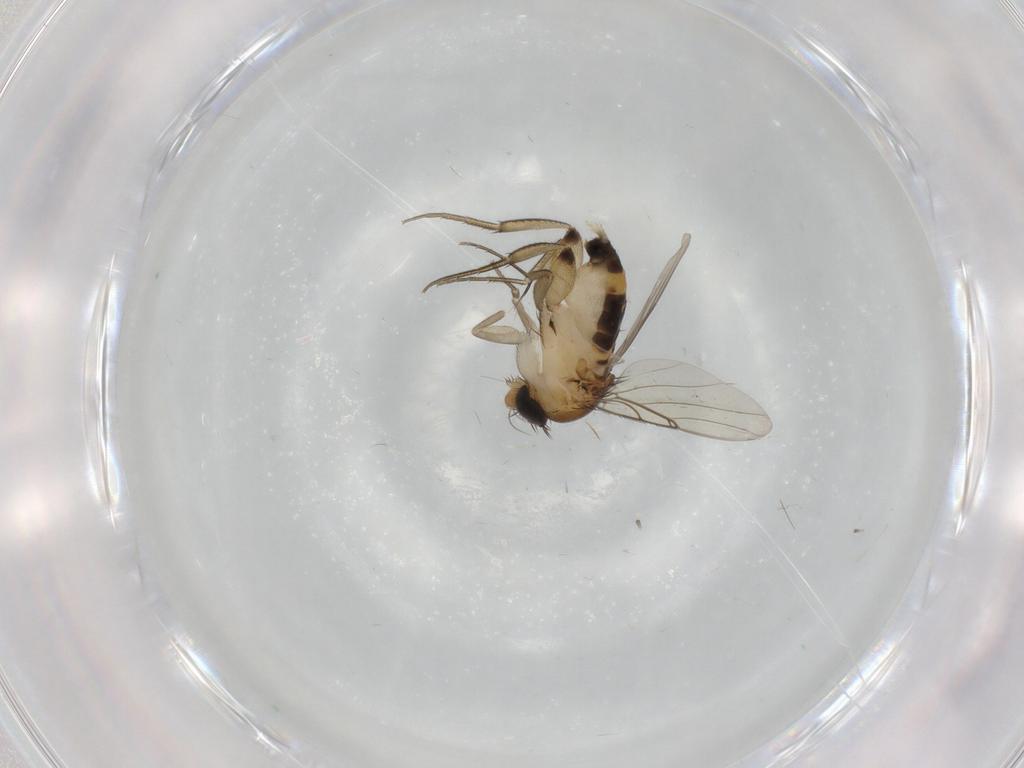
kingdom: Animalia
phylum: Arthropoda
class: Insecta
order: Diptera
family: Phoridae
